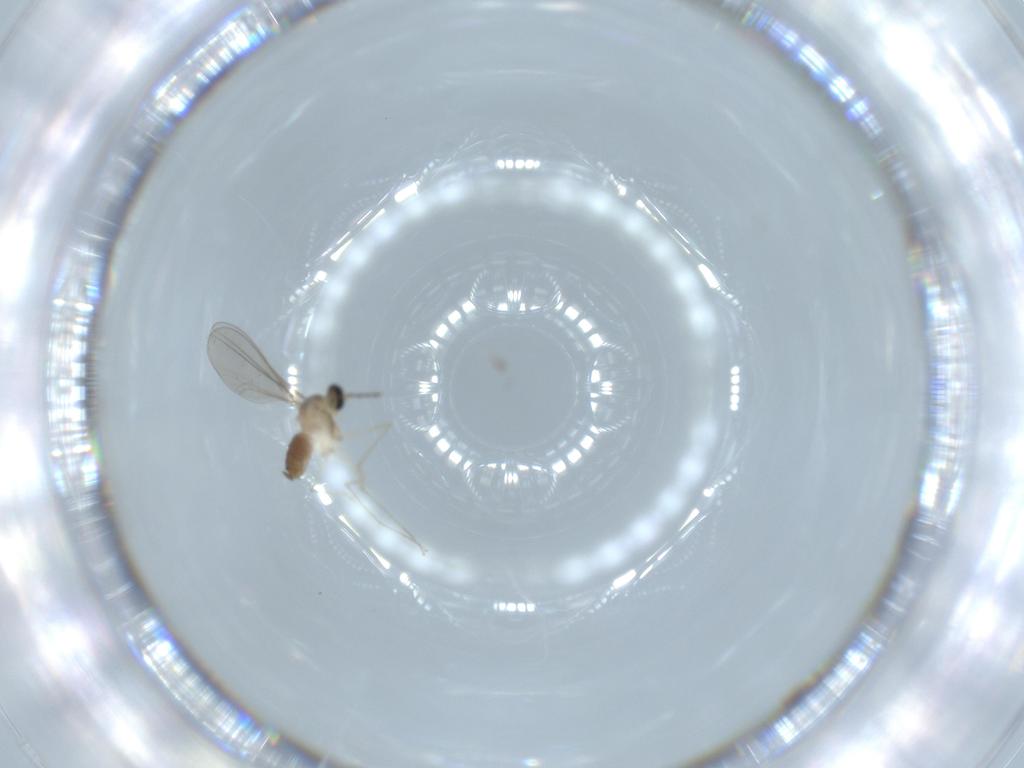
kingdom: Animalia
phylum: Arthropoda
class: Insecta
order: Diptera
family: Cecidomyiidae
